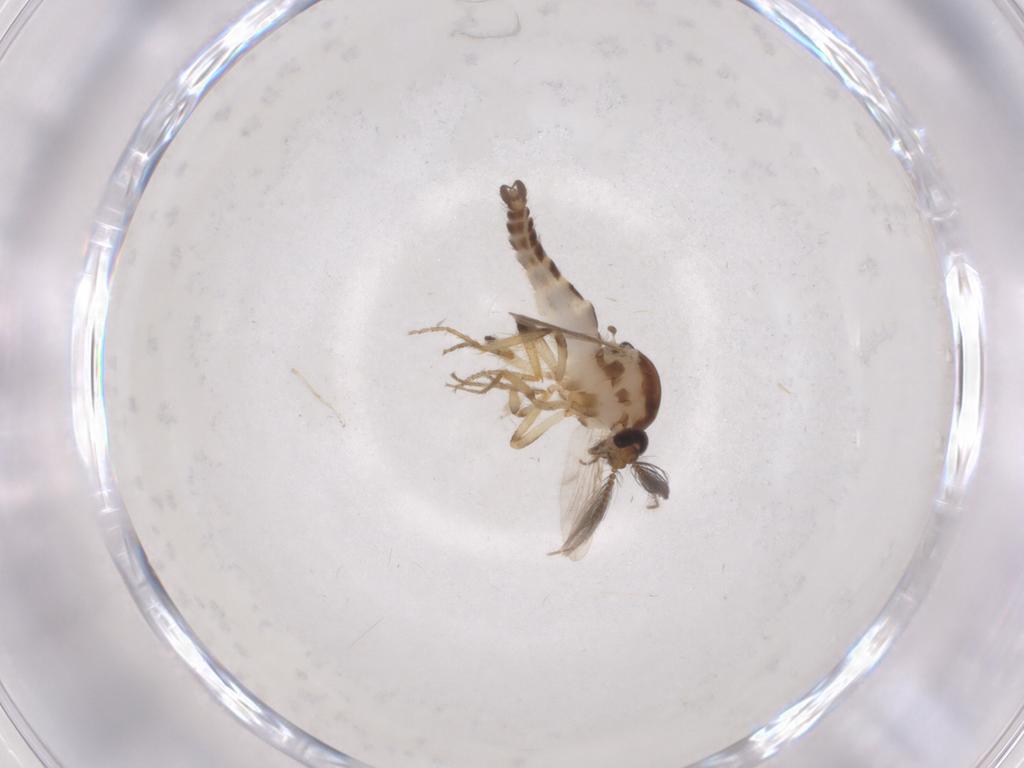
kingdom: Animalia
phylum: Arthropoda
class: Insecta
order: Diptera
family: Ceratopogonidae
